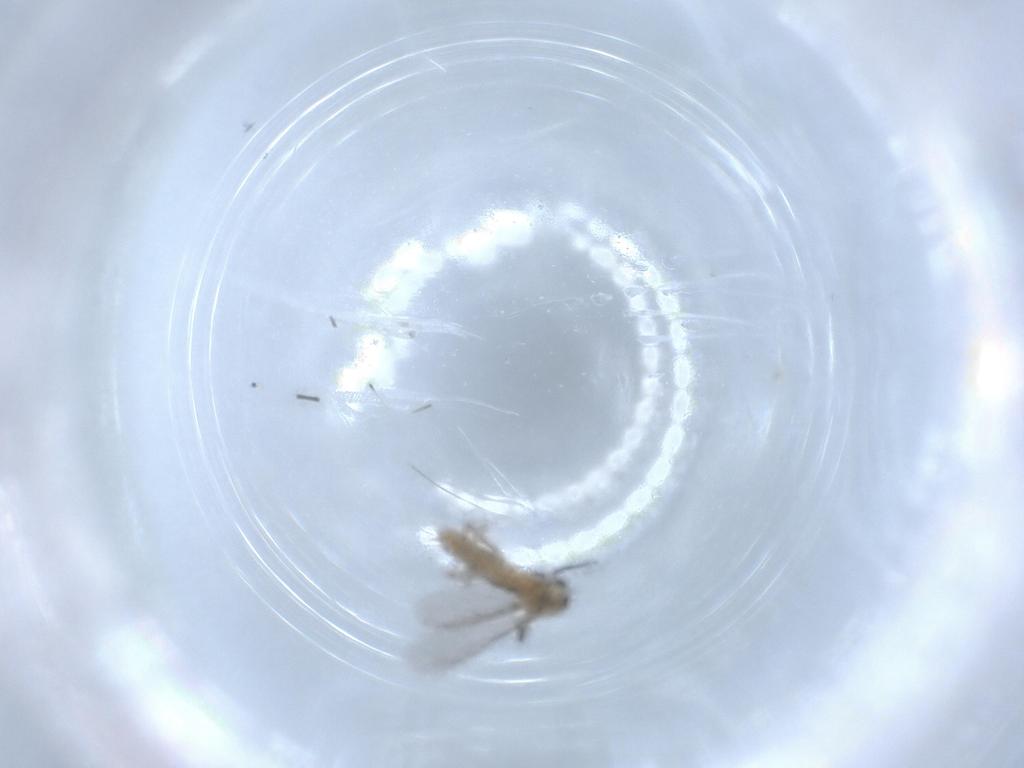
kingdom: Animalia
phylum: Arthropoda
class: Insecta
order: Diptera
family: Chironomidae
